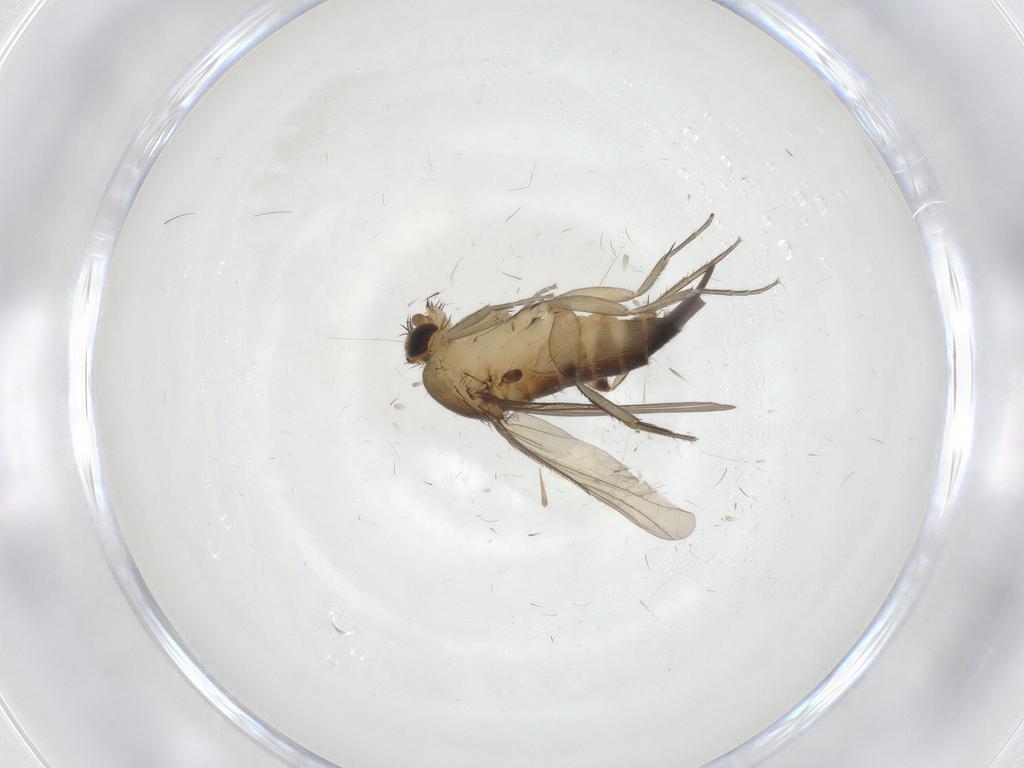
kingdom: Animalia
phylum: Arthropoda
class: Insecta
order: Diptera
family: Phoridae
